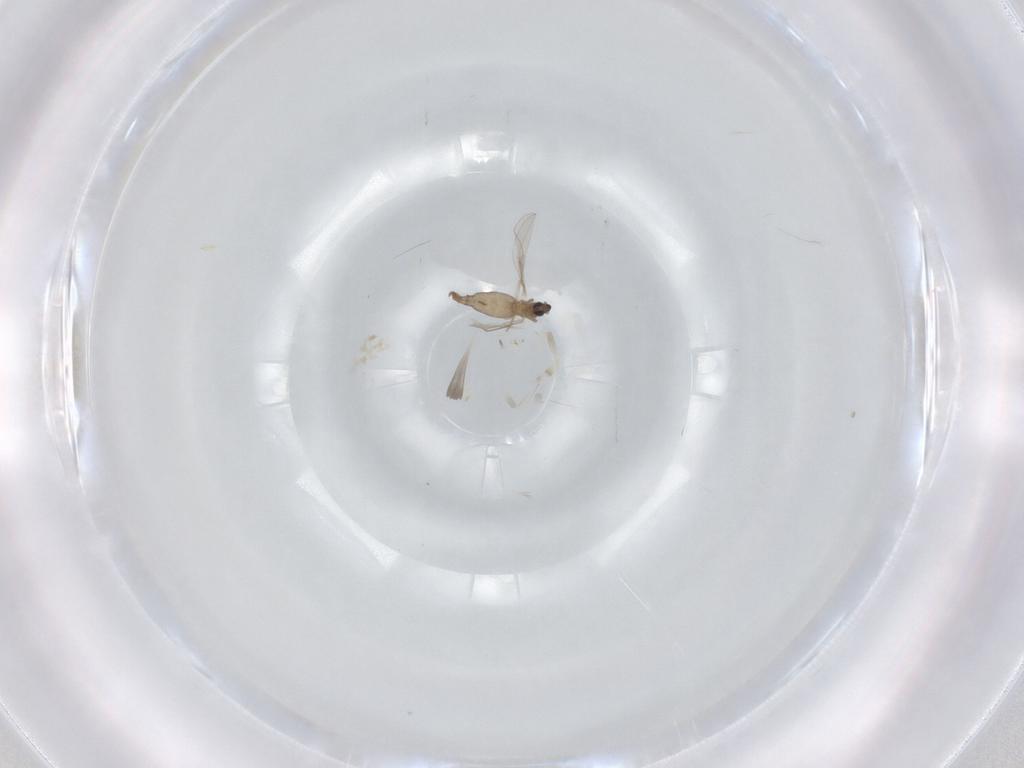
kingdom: Animalia
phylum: Arthropoda
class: Insecta
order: Diptera
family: Cecidomyiidae
